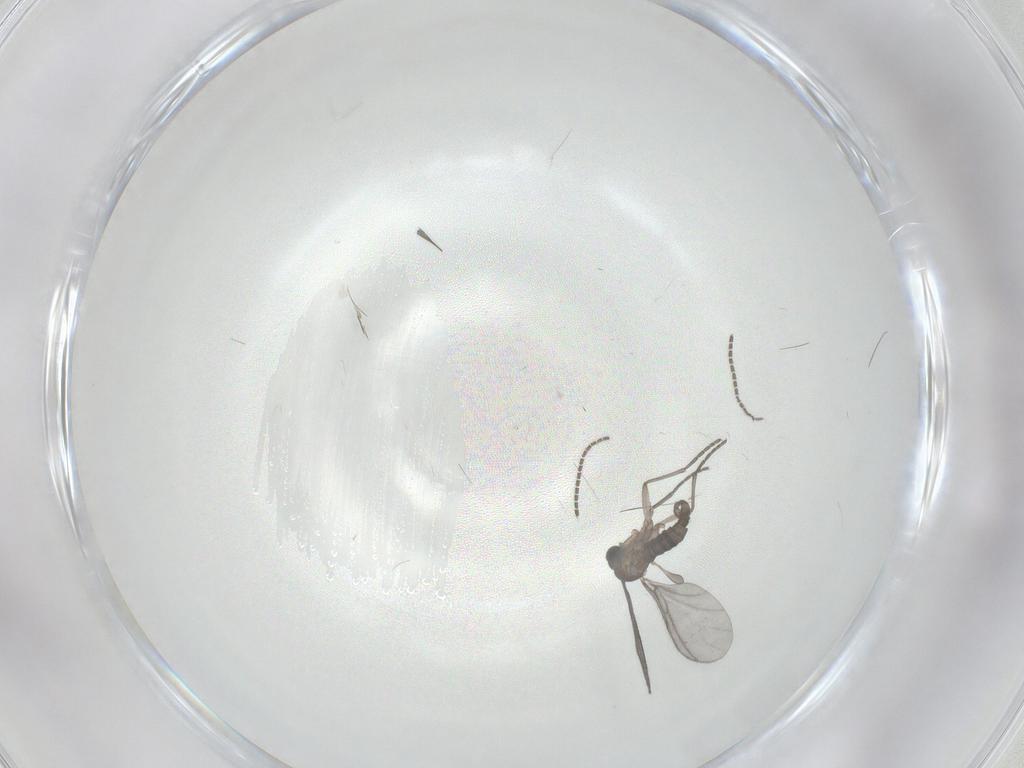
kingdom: Animalia
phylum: Arthropoda
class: Insecta
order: Diptera
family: Sciaridae
